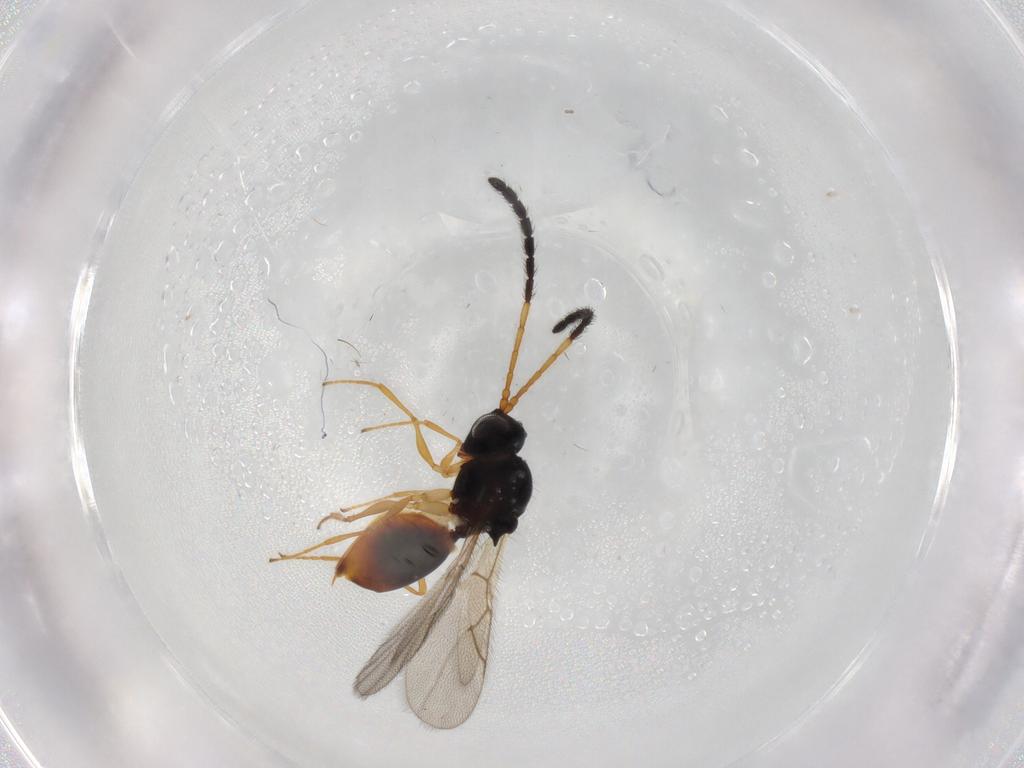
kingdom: Animalia
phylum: Arthropoda
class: Insecta
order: Hymenoptera
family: Figitidae
